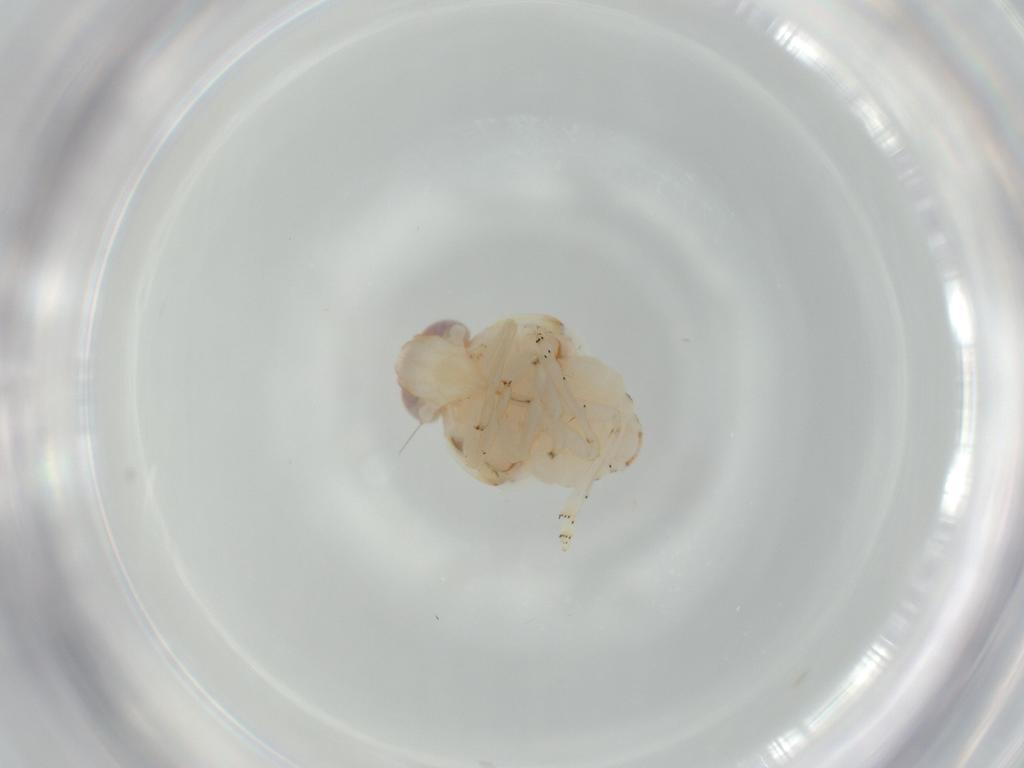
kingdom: Animalia
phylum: Arthropoda
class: Insecta
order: Hemiptera
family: Nogodinidae
